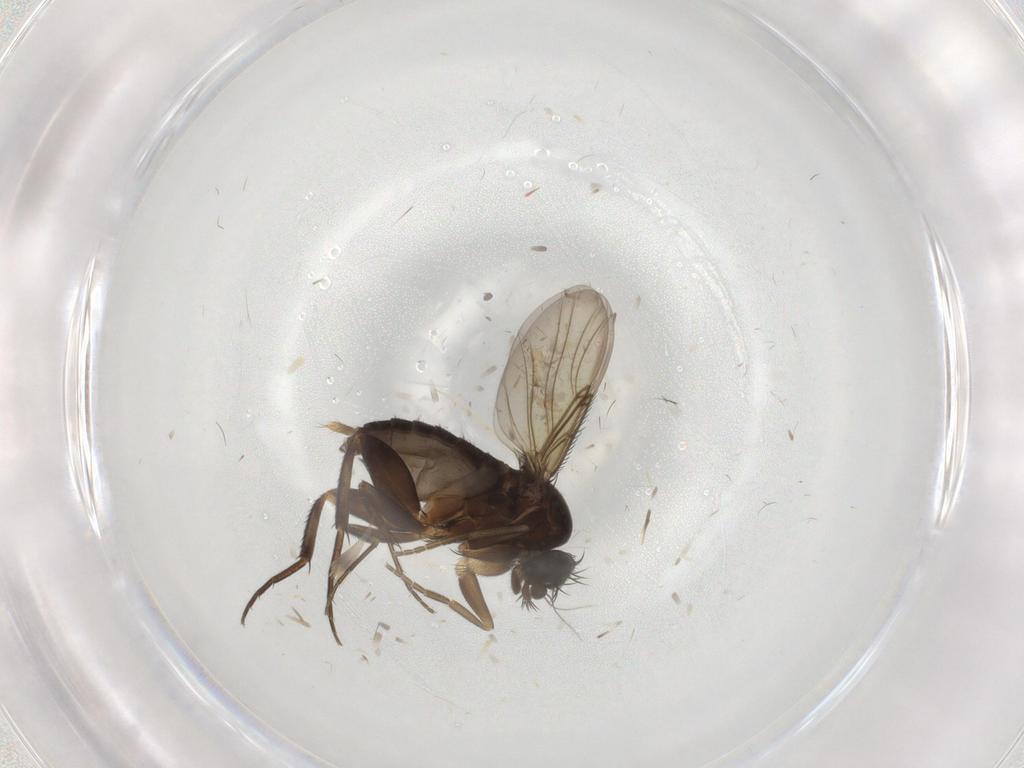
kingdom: Animalia
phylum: Arthropoda
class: Insecta
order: Diptera
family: Phoridae
